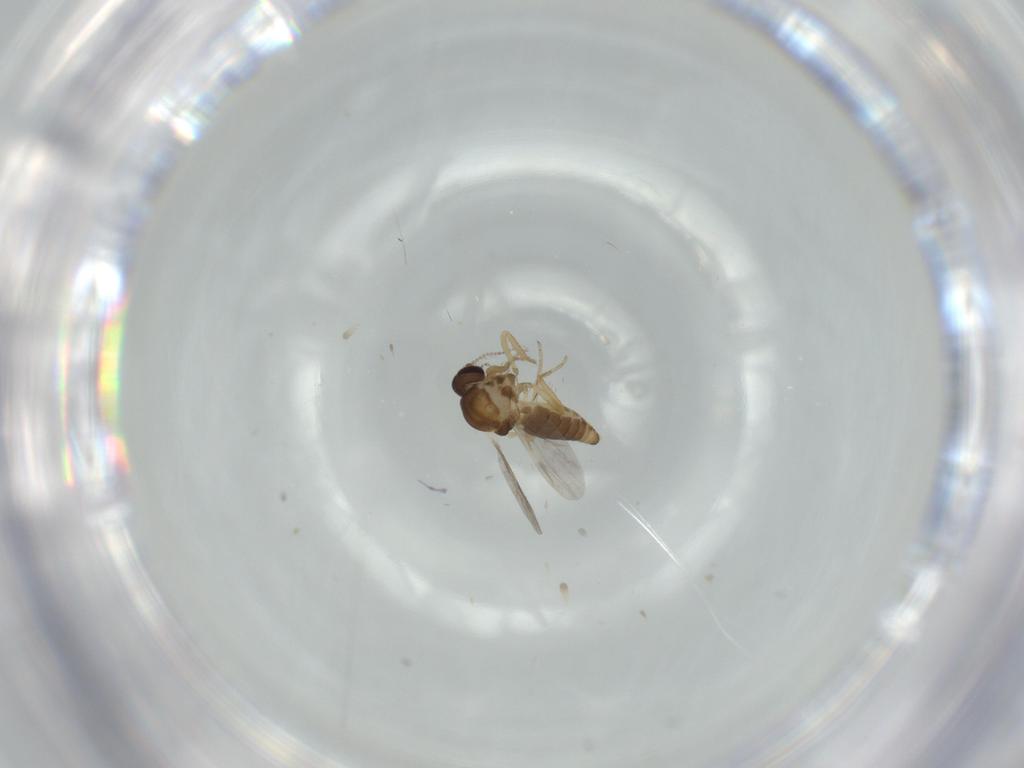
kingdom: Animalia
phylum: Arthropoda
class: Insecta
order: Diptera
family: Ceratopogonidae
